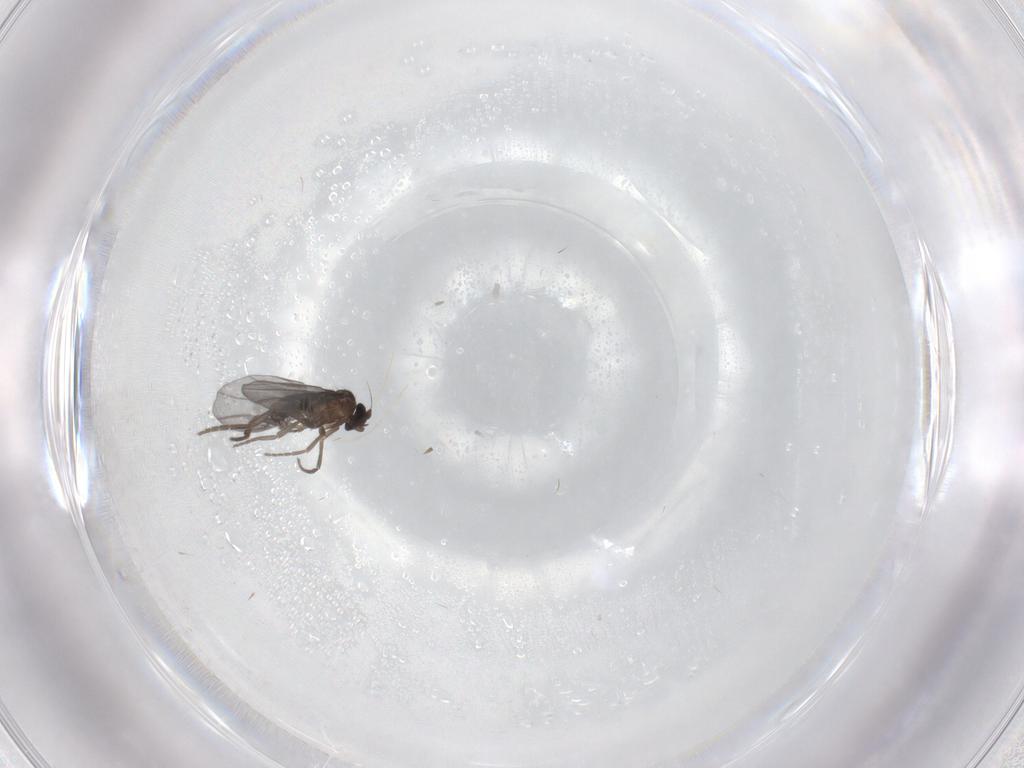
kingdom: Animalia
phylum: Arthropoda
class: Insecta
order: Diptera
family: Phoridae
